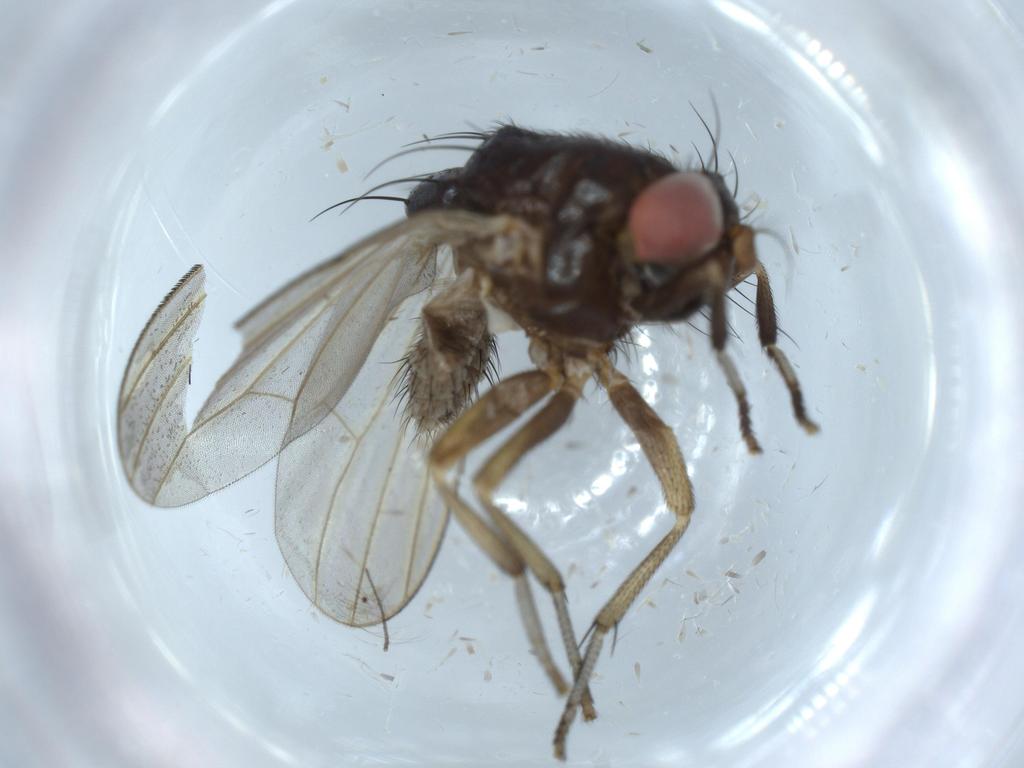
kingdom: Animalia
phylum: Arthropoda
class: Insecta
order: Diptera
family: Chironomidae
